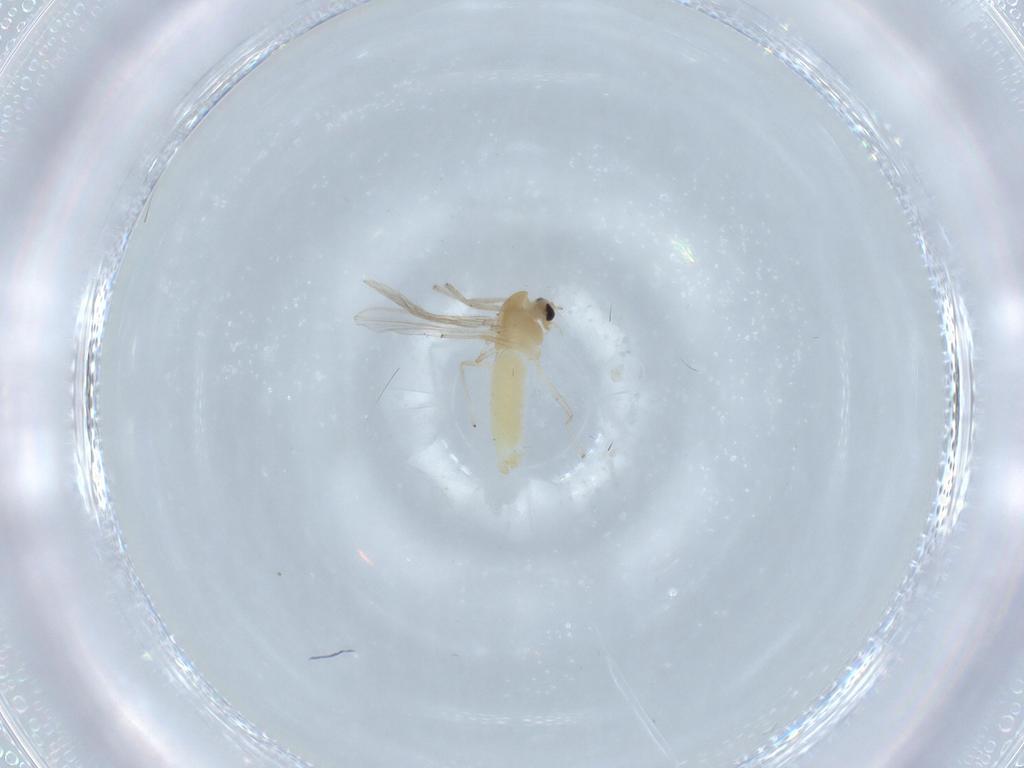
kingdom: Animalia
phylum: Arthropoda
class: Insecta
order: Diptera
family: Chironomidae
